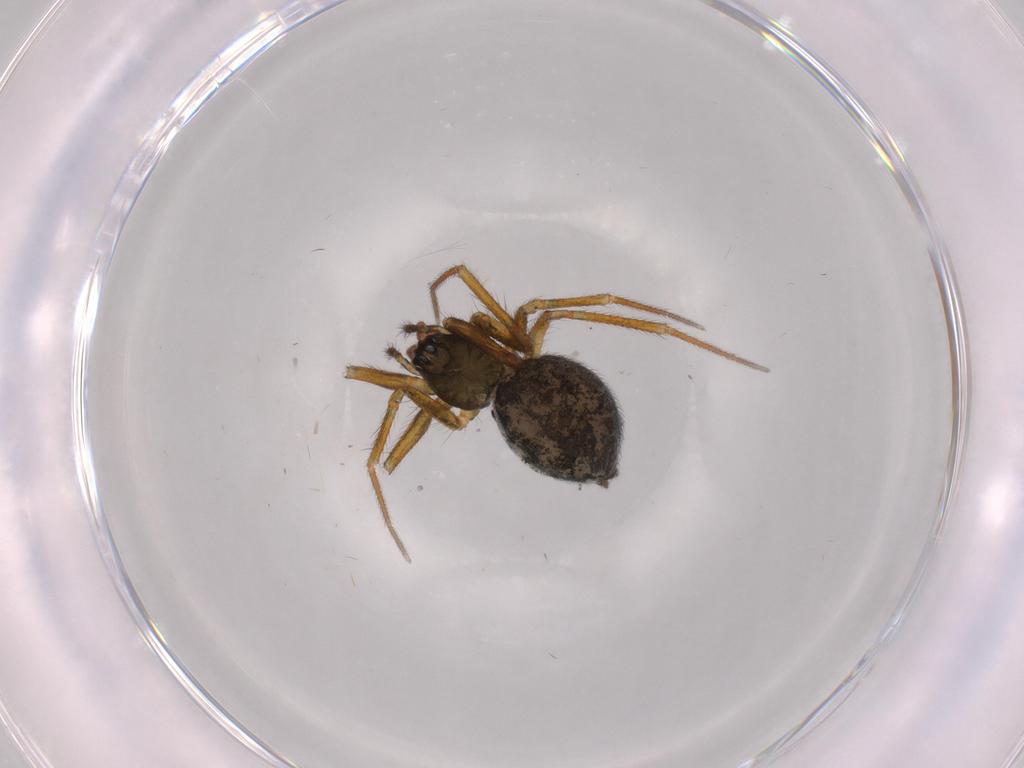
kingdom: Animalia
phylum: Arthropoda
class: Arachnida
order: Araneae
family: Linyphiidae
